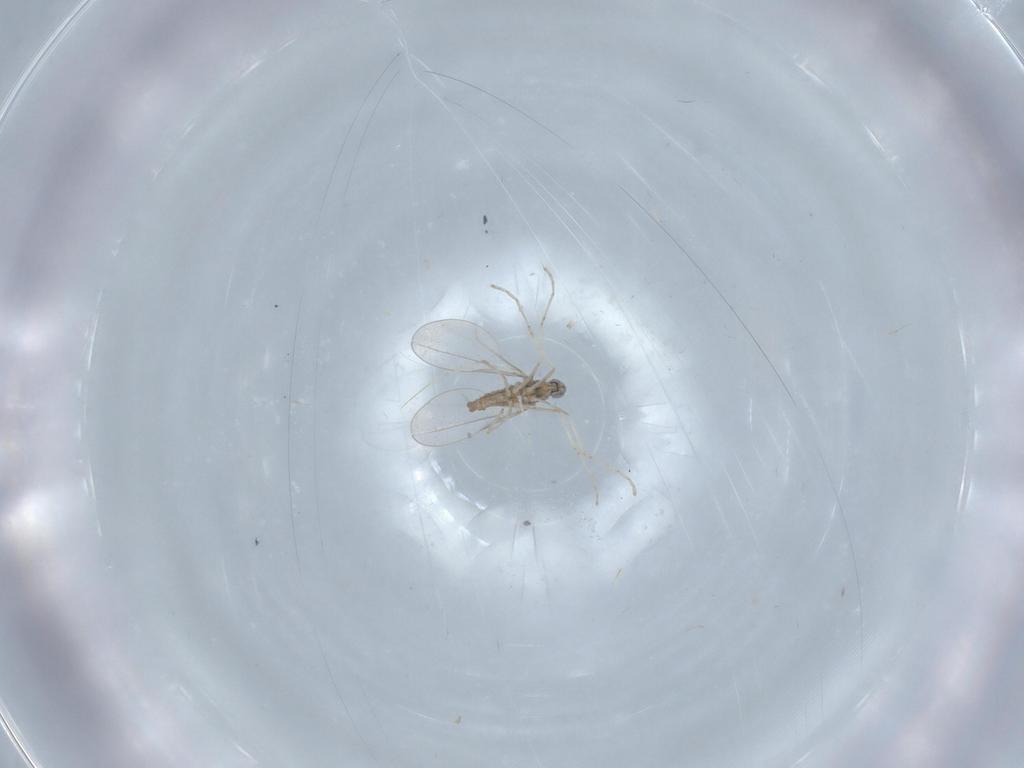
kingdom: Animalia
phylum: Arthropoda
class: Insecta
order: Diptera
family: Cecidomyiidae
